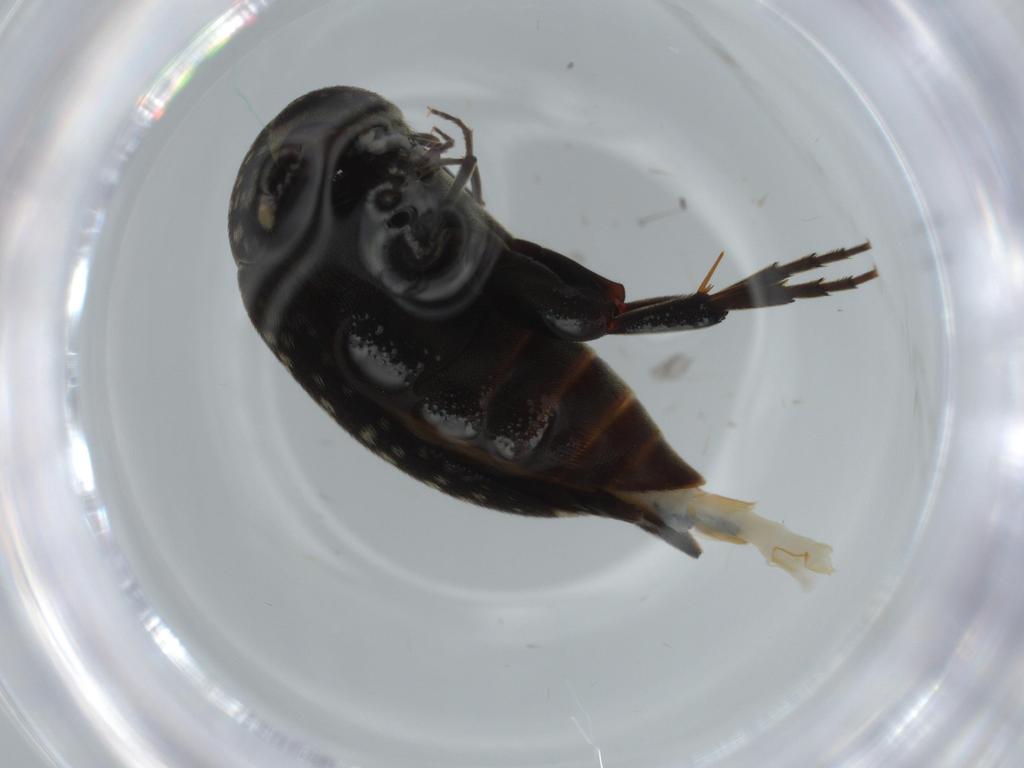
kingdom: Animalia
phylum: Arthropoda
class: Insecta
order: Coleoptera
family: Mordellidae
